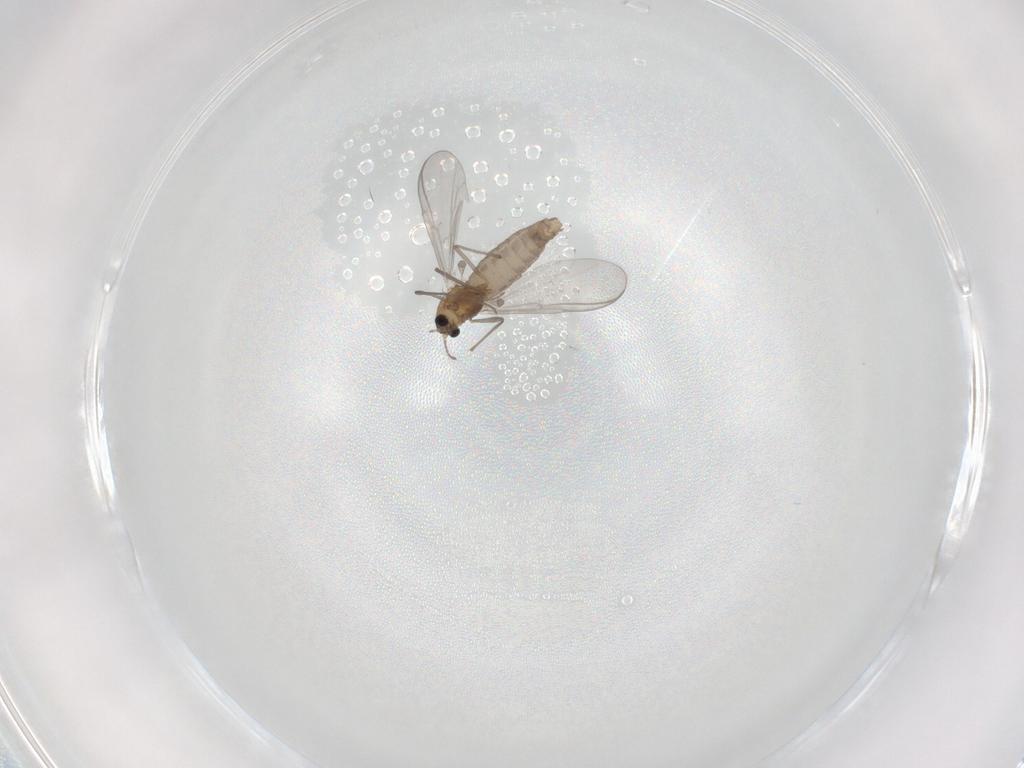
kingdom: Animalia
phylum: Arthropoda
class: Insecta
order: Diptera
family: Chironomidae
